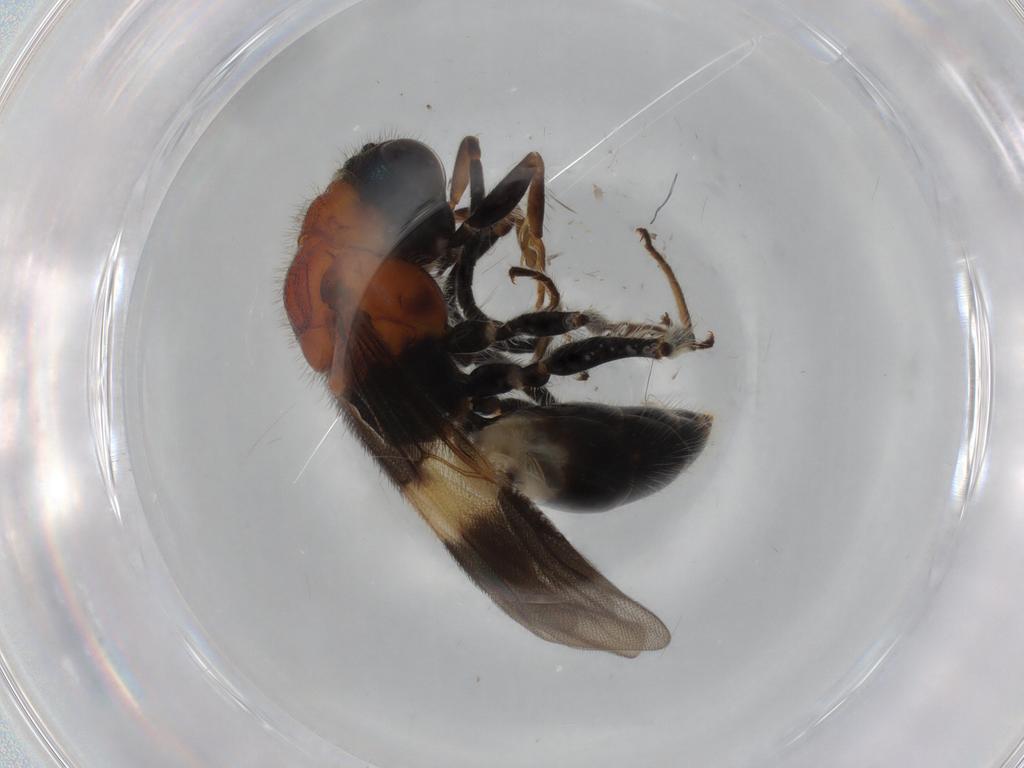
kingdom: Animalia
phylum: Arthropoda
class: Insecta
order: Hymenoptera
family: Chrysididae
